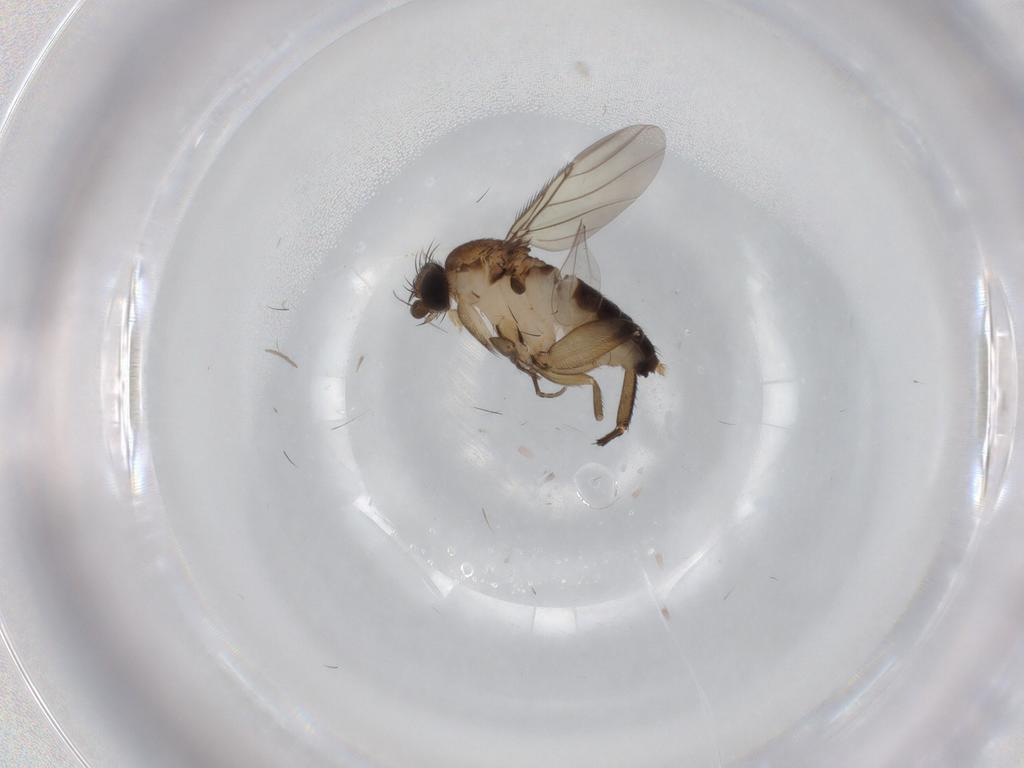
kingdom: Animalia
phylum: Arthropoda
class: Insecta
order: Diptera
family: Phoridae
